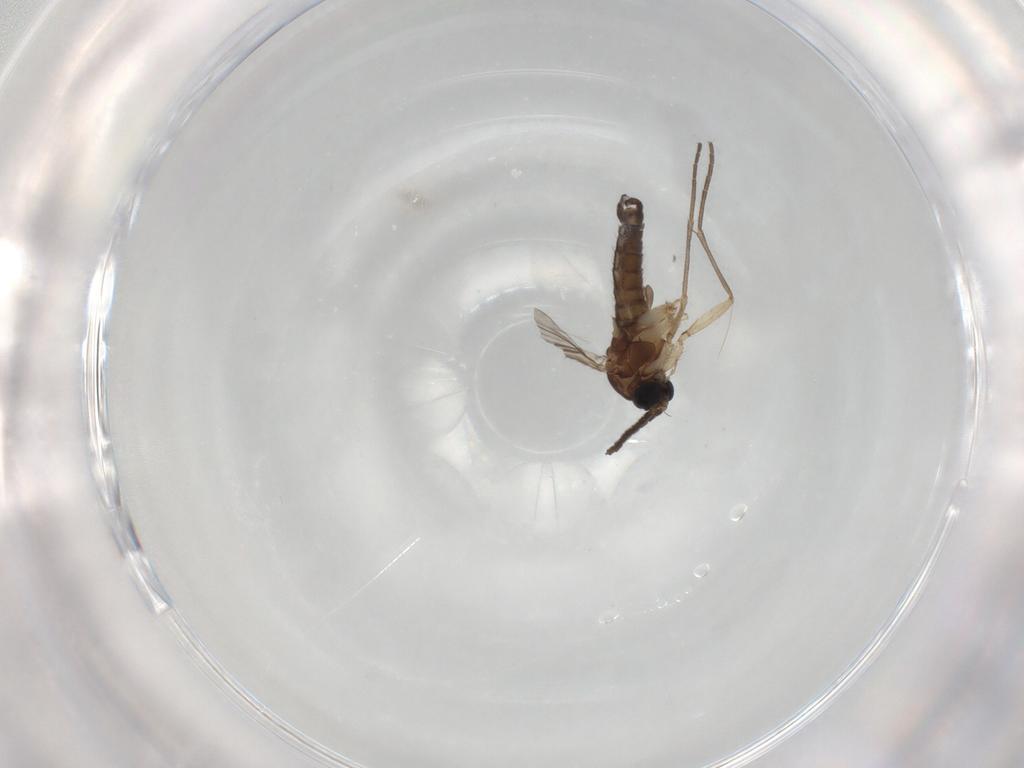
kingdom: Animalia
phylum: Arthropoda
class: Insecta
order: Diptera
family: Sciaridae
